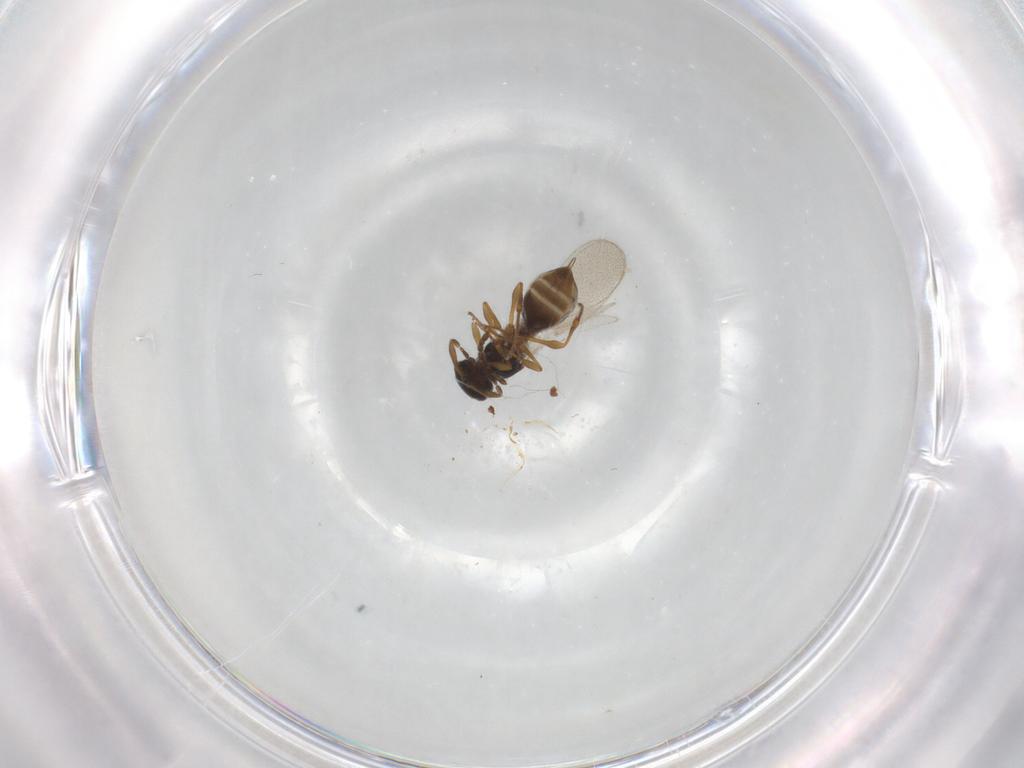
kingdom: Animalia
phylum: Arthropoda
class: Insecta
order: Diptera
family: Mythicomyiidae
